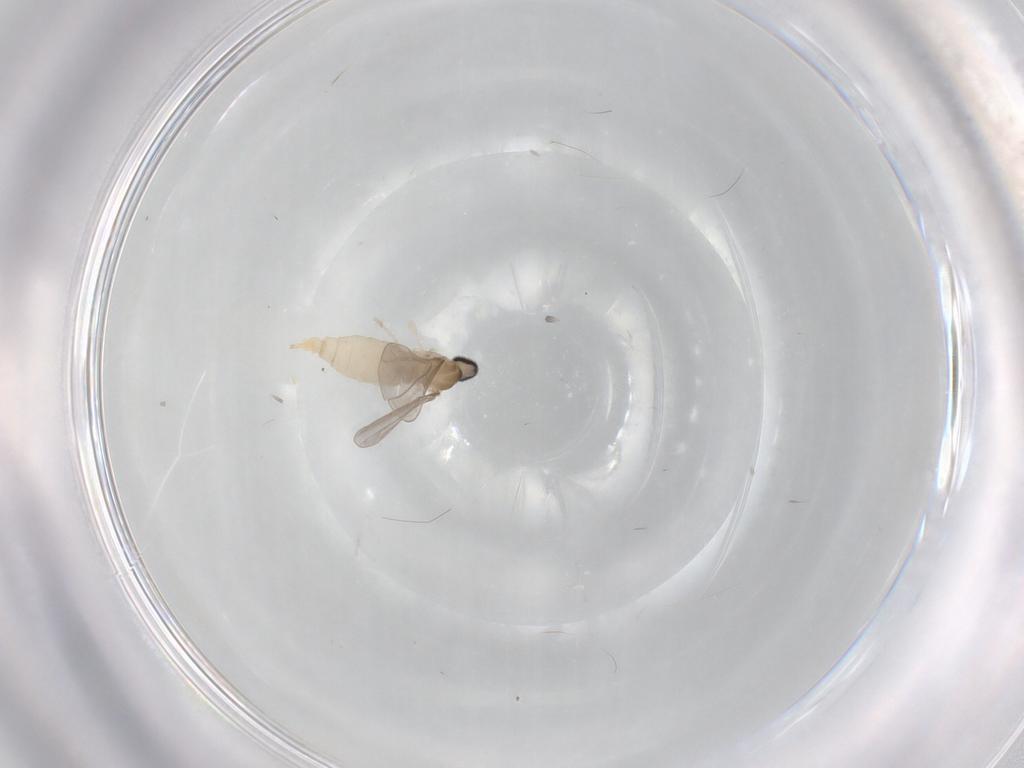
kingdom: Animalia
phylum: Arthropoda
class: Insecta
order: Diptera
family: Cecidomyiidae
